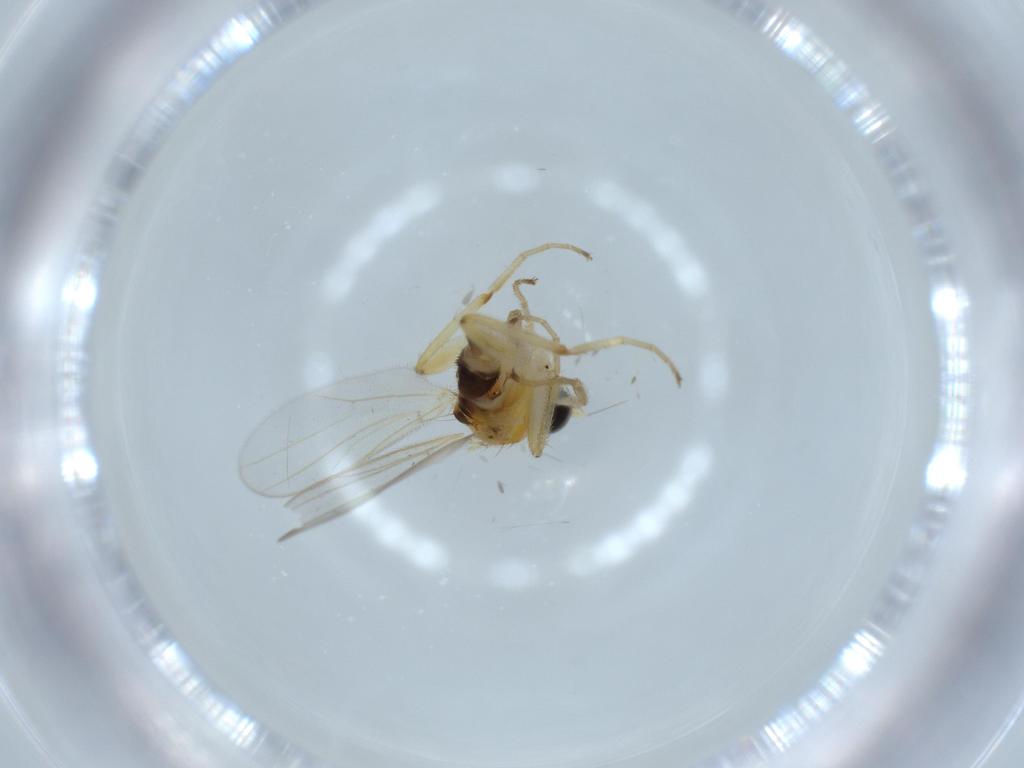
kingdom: Animalia
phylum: Arthropoda
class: Insecta
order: Diptera
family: Hybotidae
